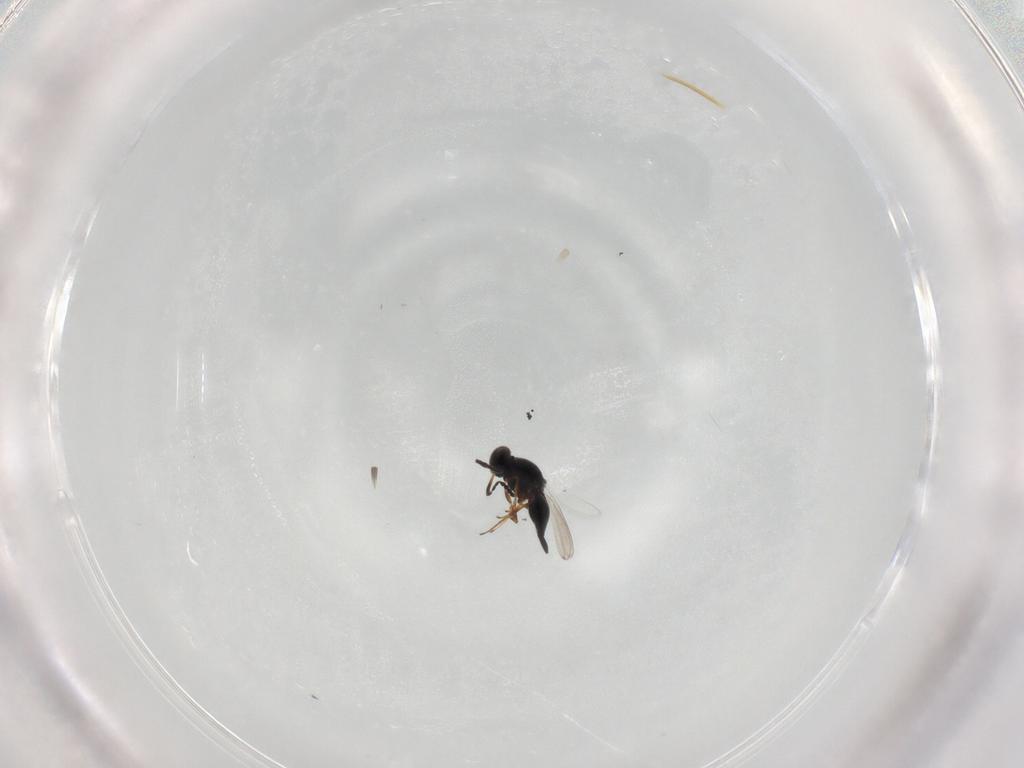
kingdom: Animalia
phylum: Arthropoda
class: Insecta
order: Hymenoptera
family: Platygastridae
